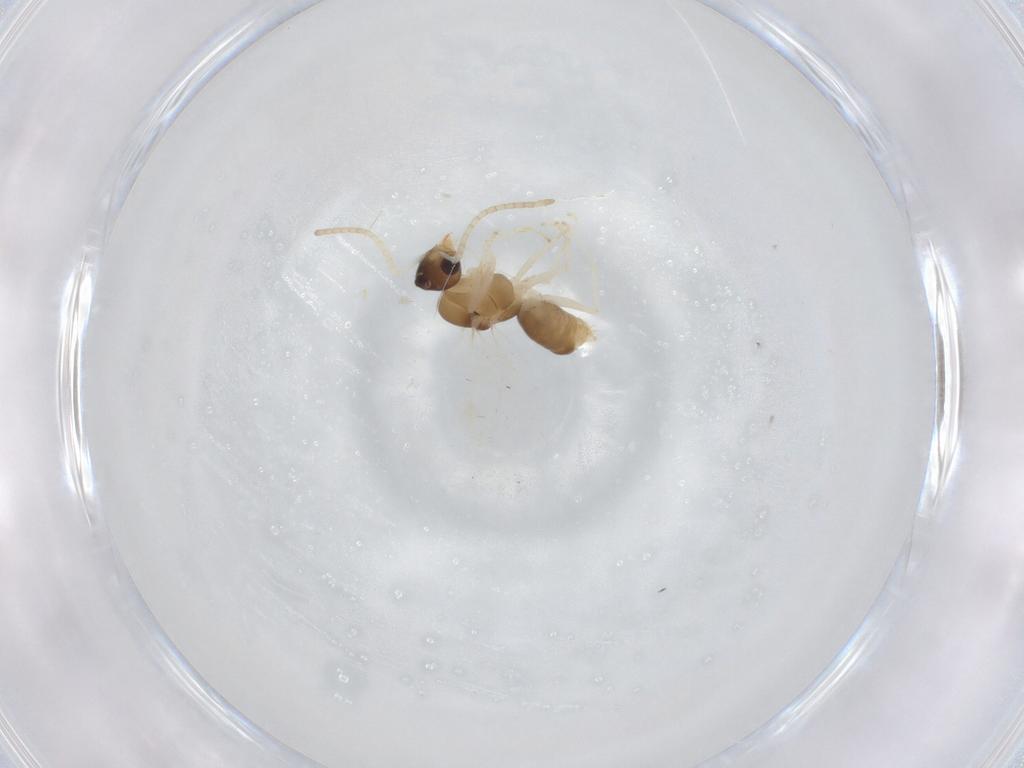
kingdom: Animalia
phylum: Arthropoda
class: Insecta
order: Hymenoptera
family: Formicidae
